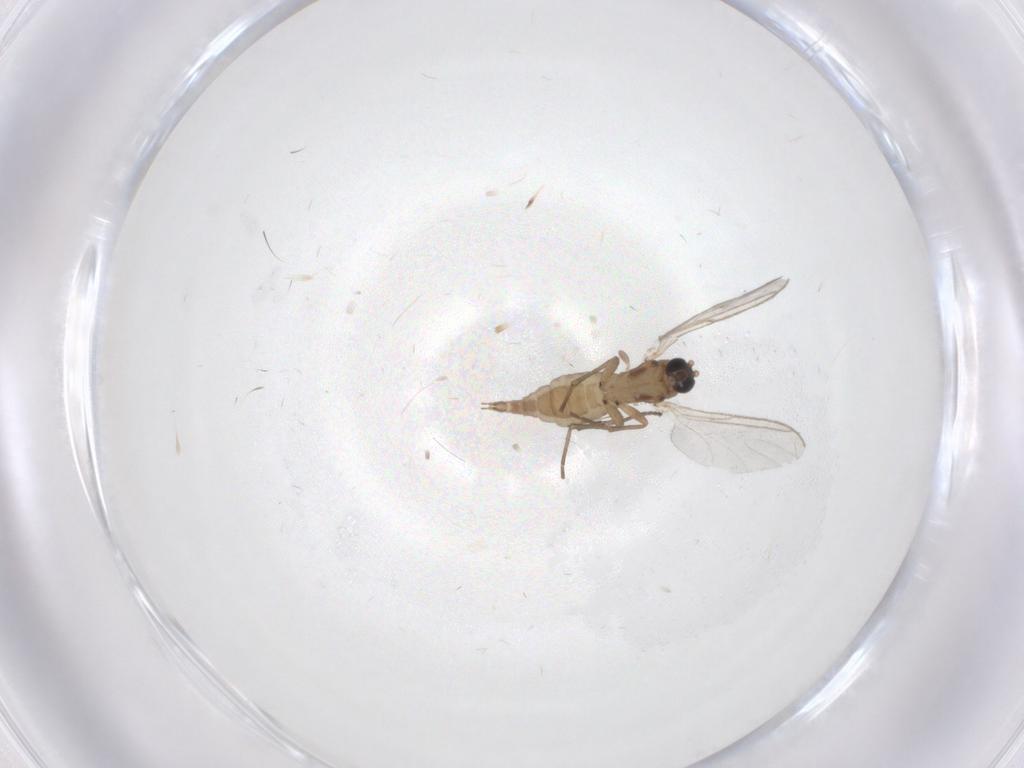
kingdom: Animalia
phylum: Arthropoda
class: Insecta
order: Diptera
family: Sciaridae
